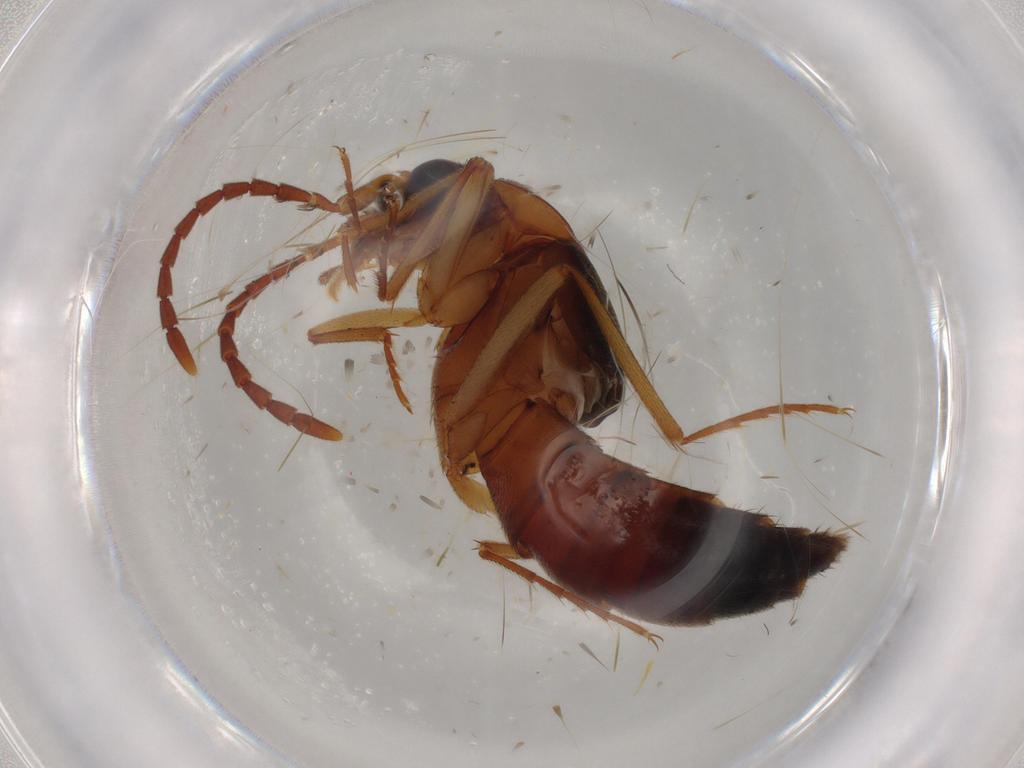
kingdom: Animalia
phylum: Arthropoda
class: Insecta
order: Coleoptera
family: Staphylinidae
